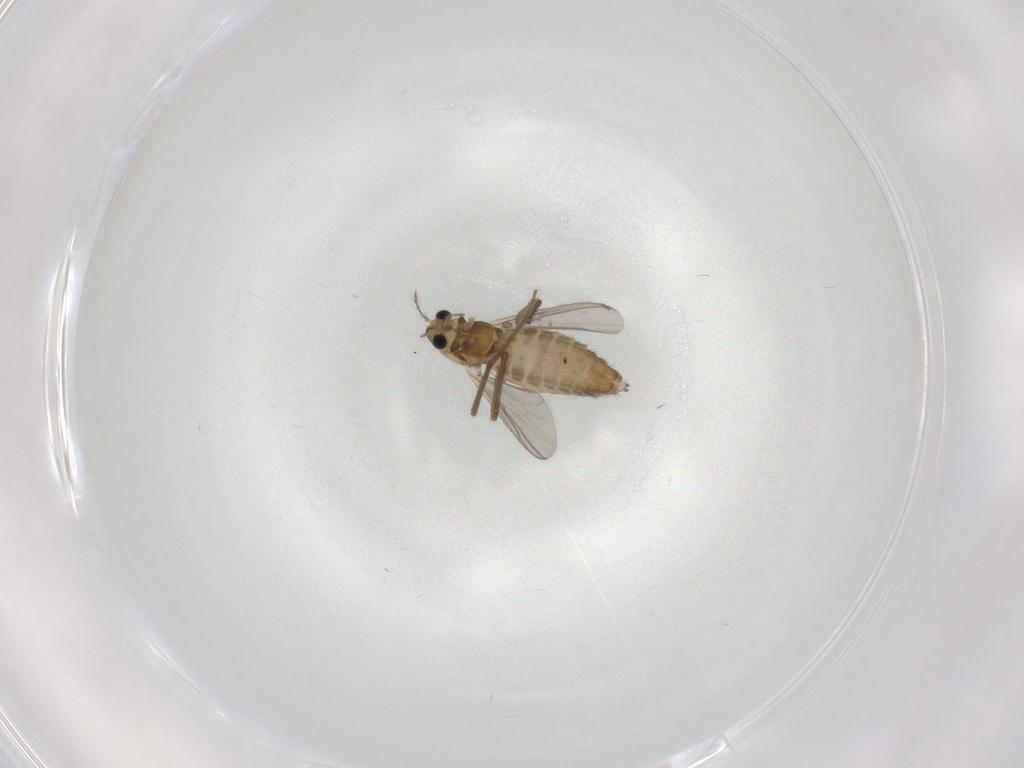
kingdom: Animalia
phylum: Arthropoda
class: Insecta
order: Diptera
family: Chironomidae
